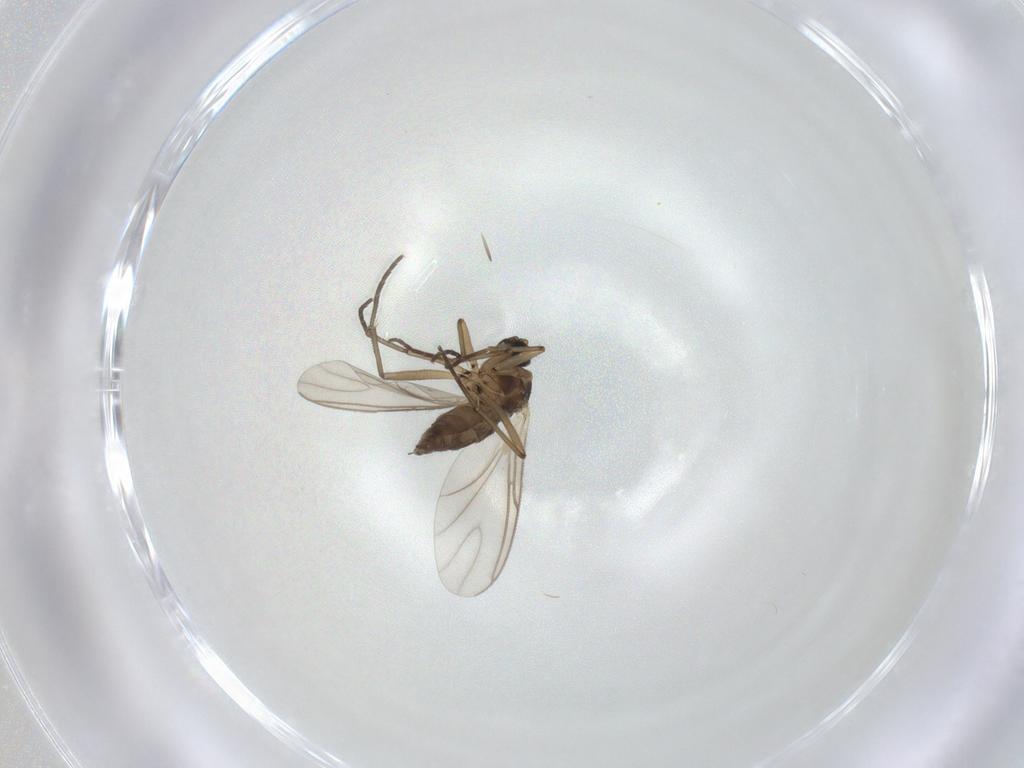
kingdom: Animalia
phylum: Arthropoda
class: Insecta
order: Diptera
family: Cecidomyiidae
